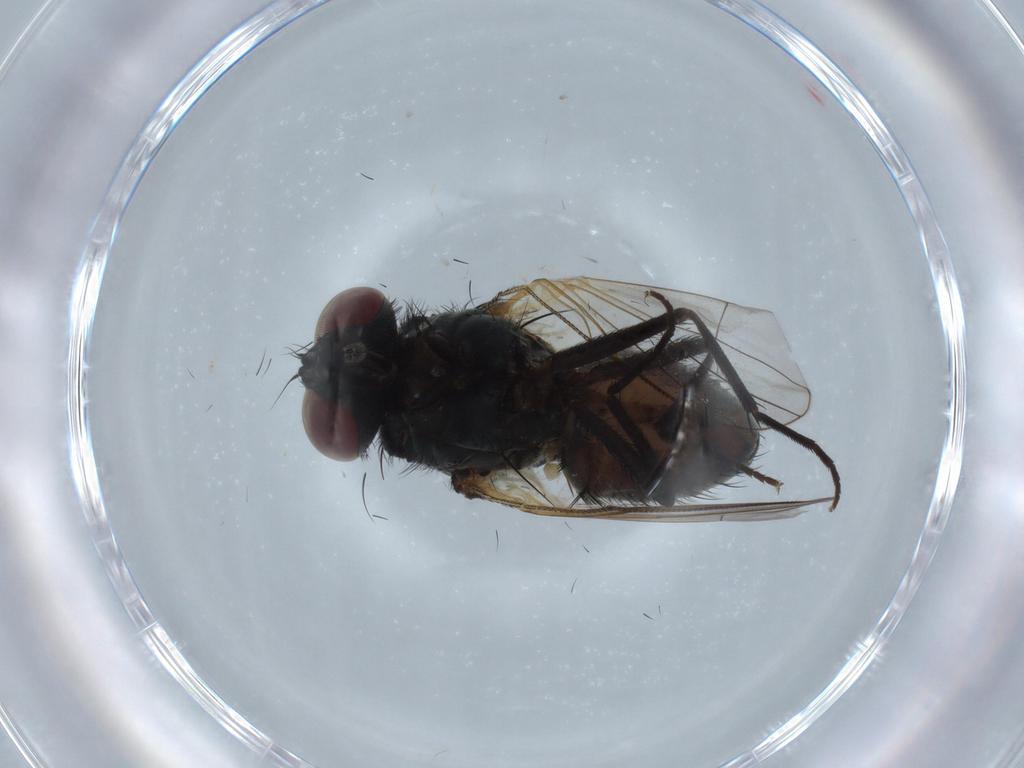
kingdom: Animalia
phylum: Arthropoda
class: Insecta
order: Diptera
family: Muscidae
